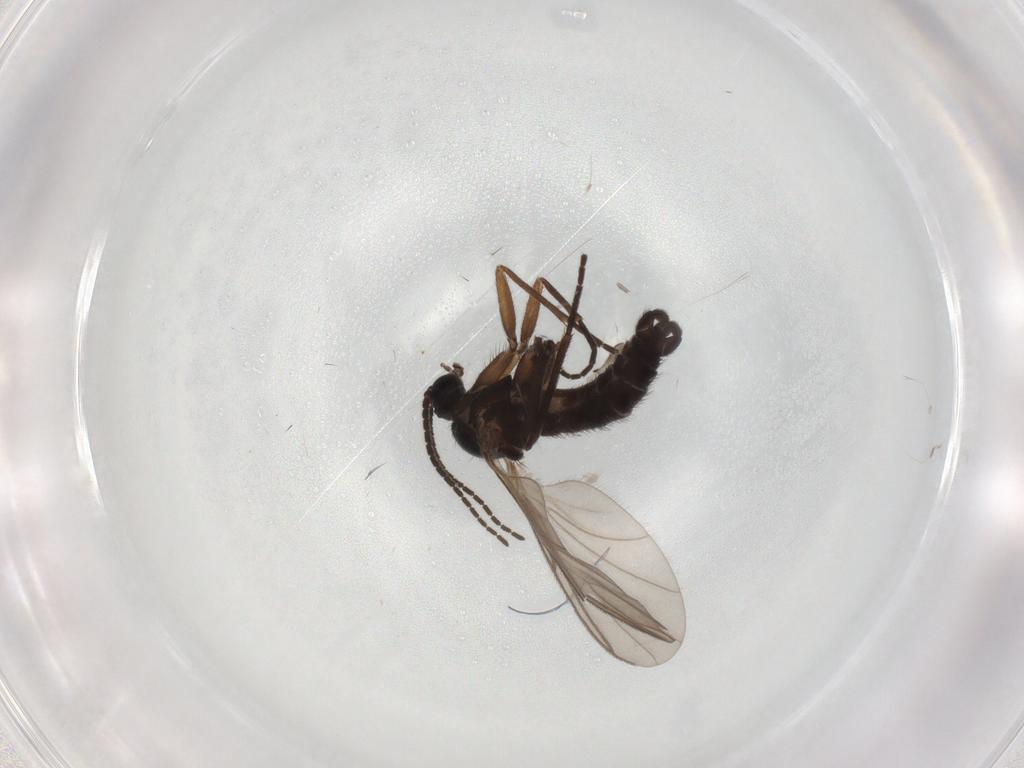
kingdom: Animalia
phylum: Arthropoda
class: Insecta
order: Diptera
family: Sciaridae
